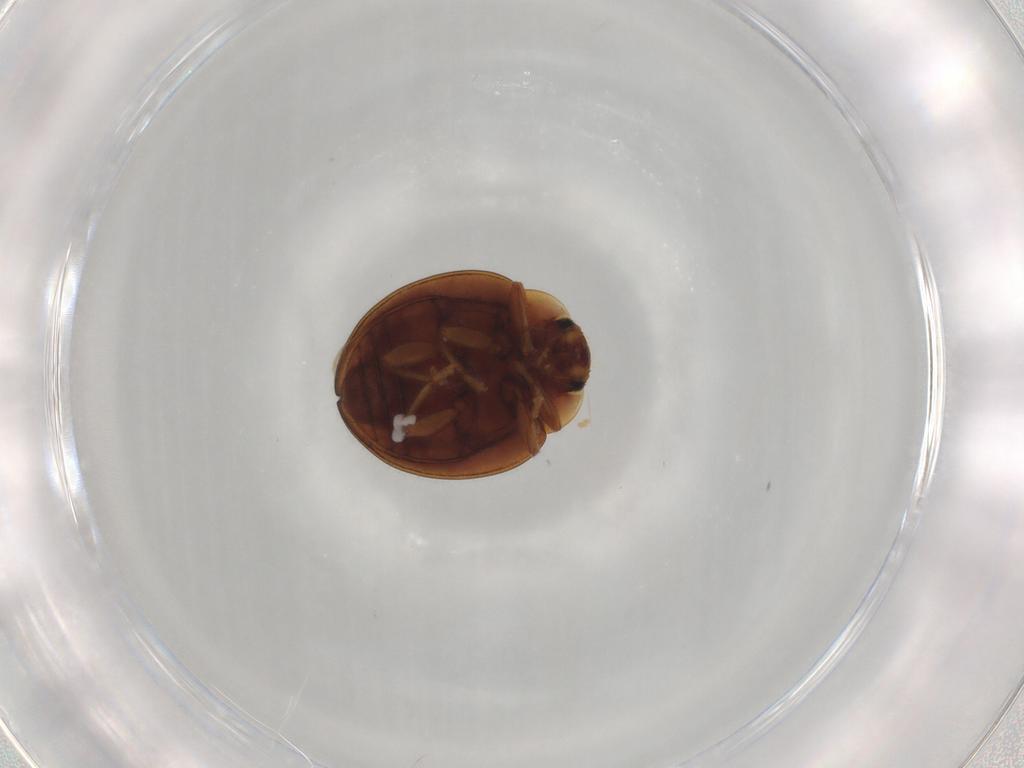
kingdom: Animalia
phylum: Arthropoda
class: Insecta
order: Coleoptera
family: Coccinellidae
